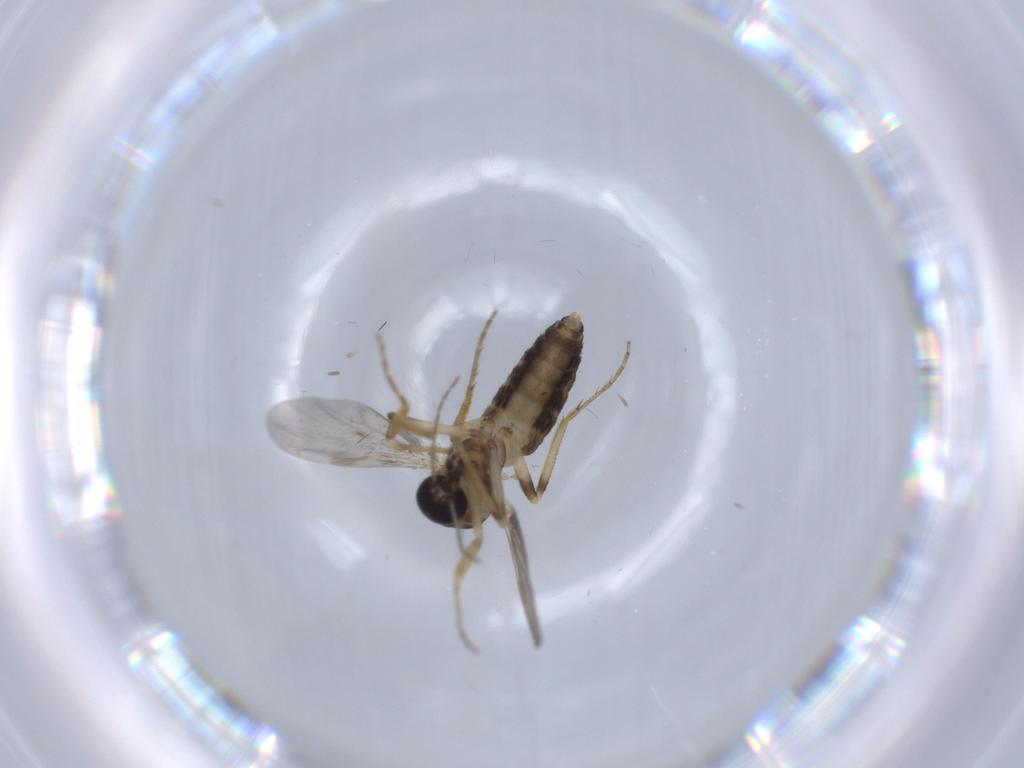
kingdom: Animalia
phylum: Arthropoda
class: Insecta
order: Diptera
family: Ceratopogonidae
